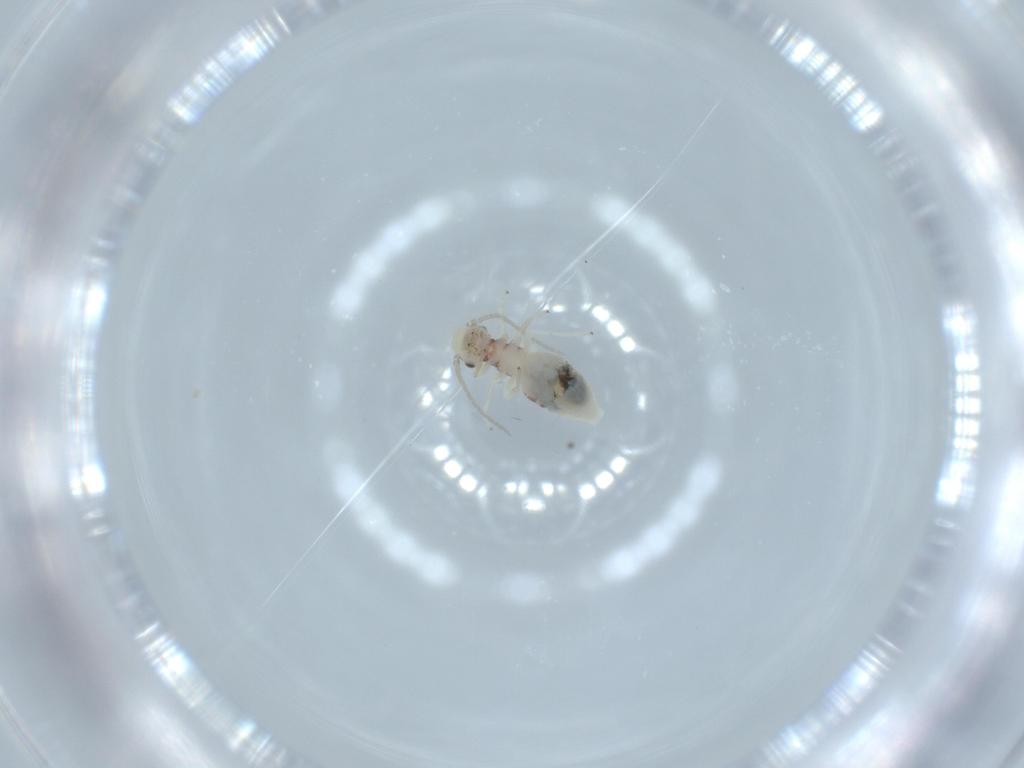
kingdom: Animalia
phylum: Arthropoda
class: Insecta
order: Psocodea
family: Caeciliusidae
